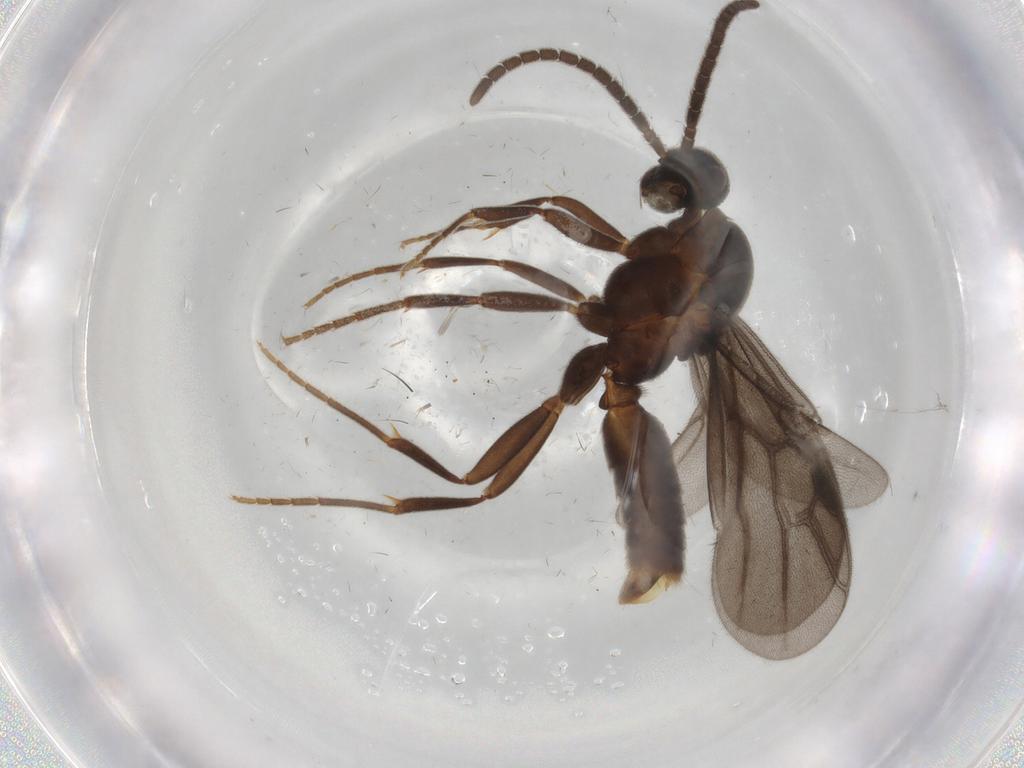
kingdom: Animalia
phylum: Arthropoda
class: Insecta
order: Hymenoptera
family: Formicidae
